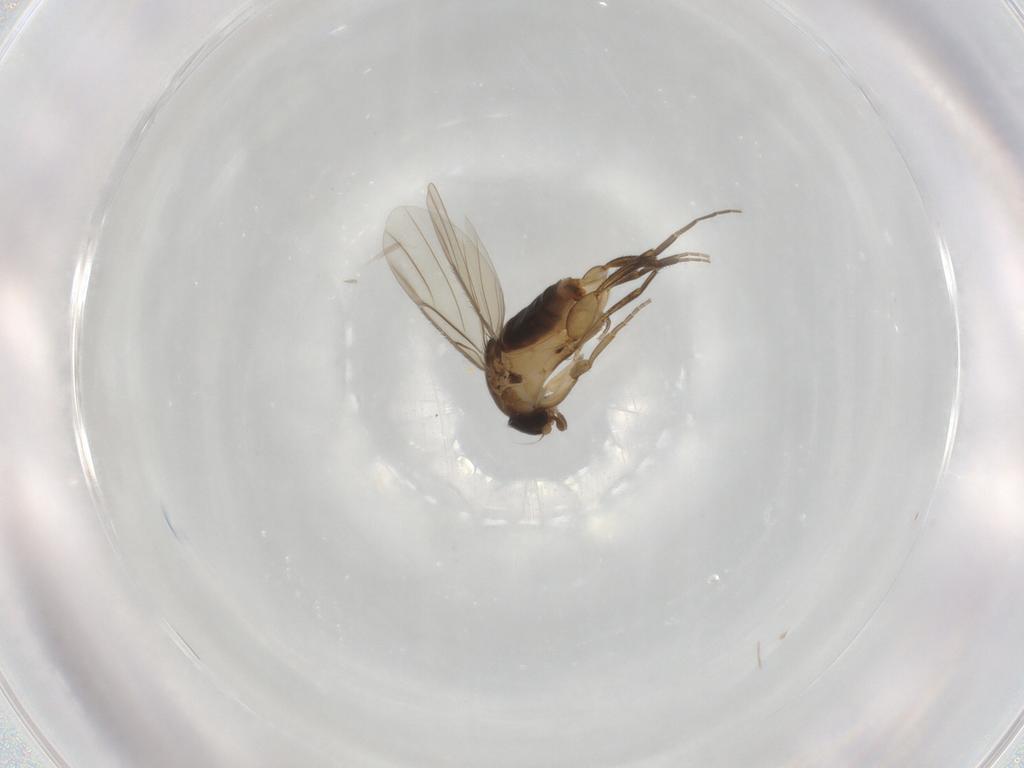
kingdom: Animalia
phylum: Arthropoda
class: Insecta
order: Diptera
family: Phoridae
